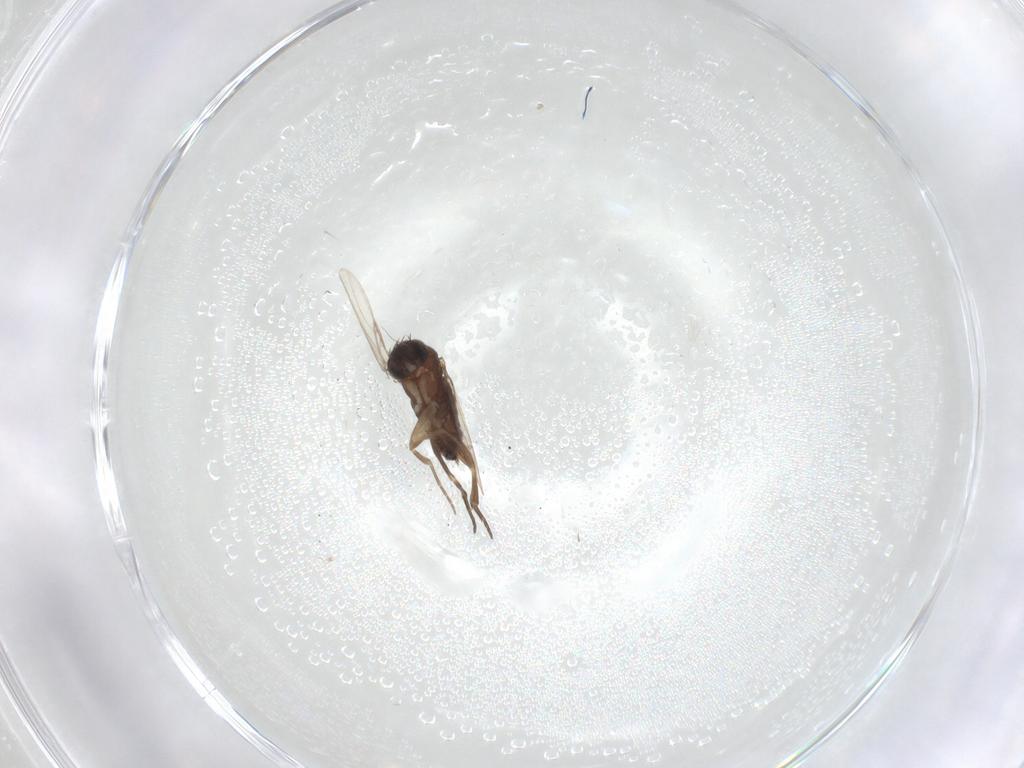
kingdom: Animalia
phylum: Arthropoda
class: Insecta
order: Diptera
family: Phoridae
